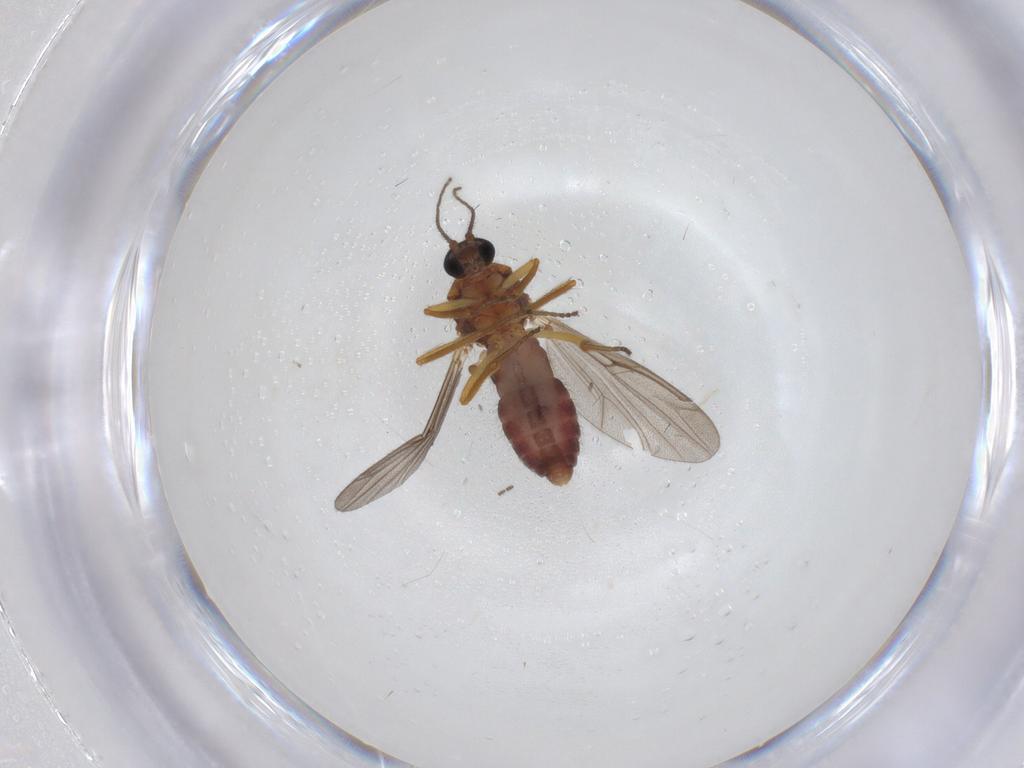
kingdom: Animalia
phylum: Arthropoda
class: Insecta
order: Diptera
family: Ceratopogonidae
